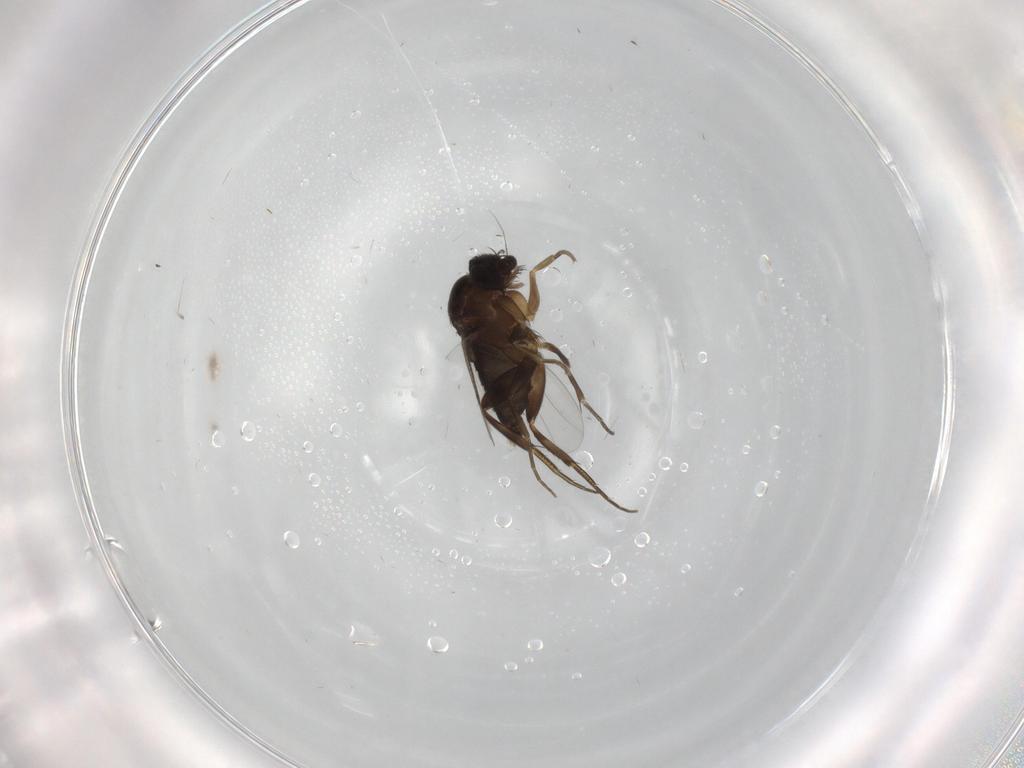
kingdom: Animalia
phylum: Arthropoda
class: Insecta
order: Diptera
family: Phoridae
